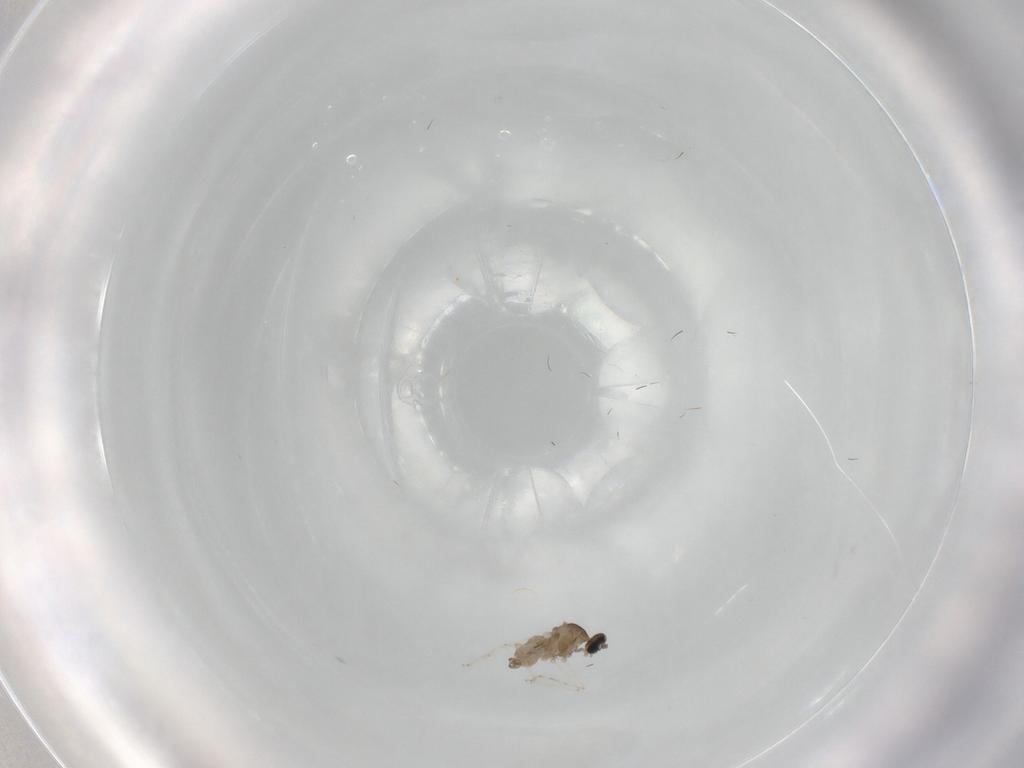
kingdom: Animalia
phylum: Arthropoda
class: Insecta
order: Diptera
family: Cecidomyiidae
